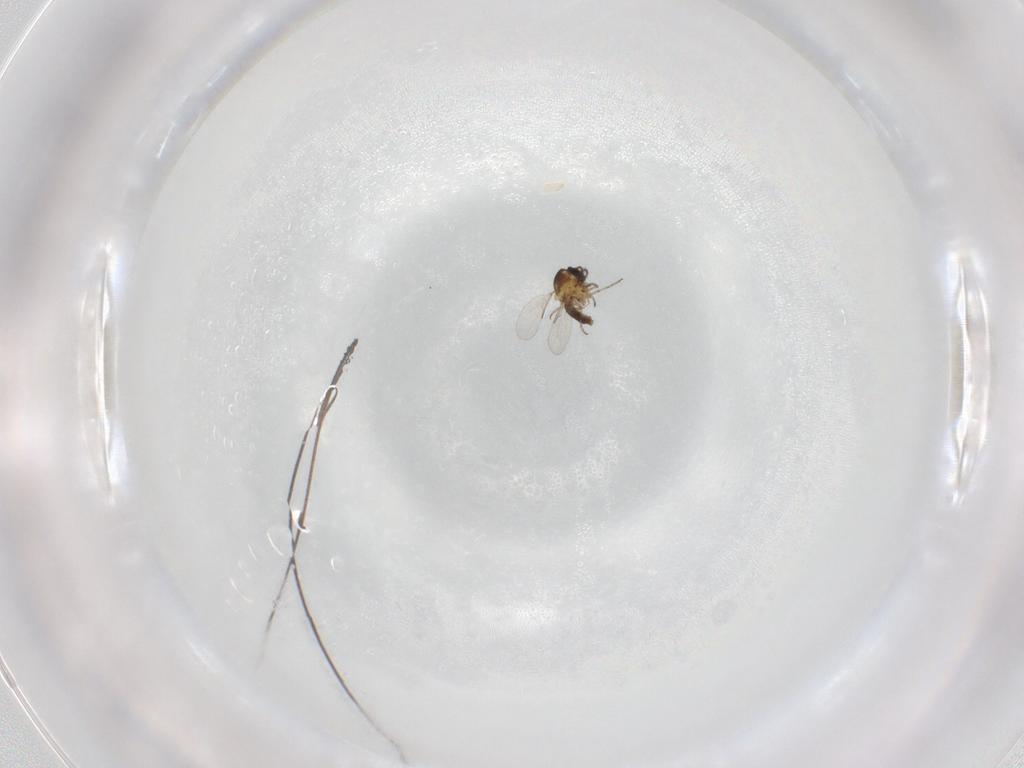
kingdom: Animalia
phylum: Arthropoda
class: Insecta
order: Diptera
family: Ceratopogonidae
